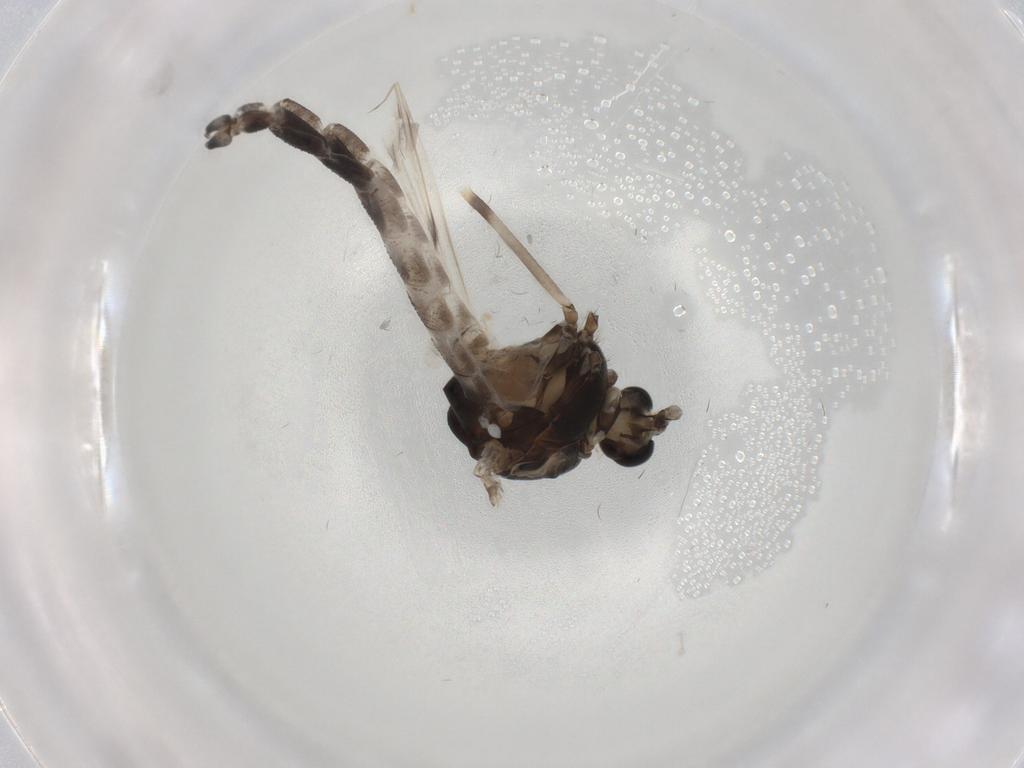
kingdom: Animalia
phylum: Arthropoda
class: Insecta
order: Diptera
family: Chironomidae
